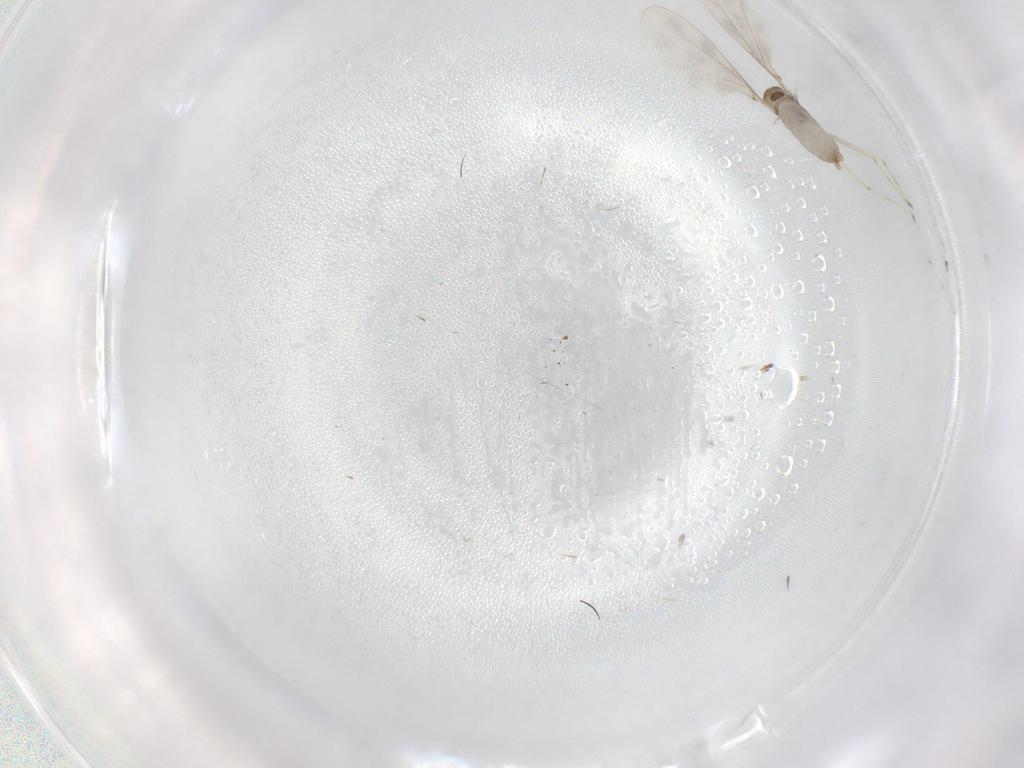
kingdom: Animalia
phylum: Arthropoda
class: Insecta
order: Diptera
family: Cecidomyiidae
